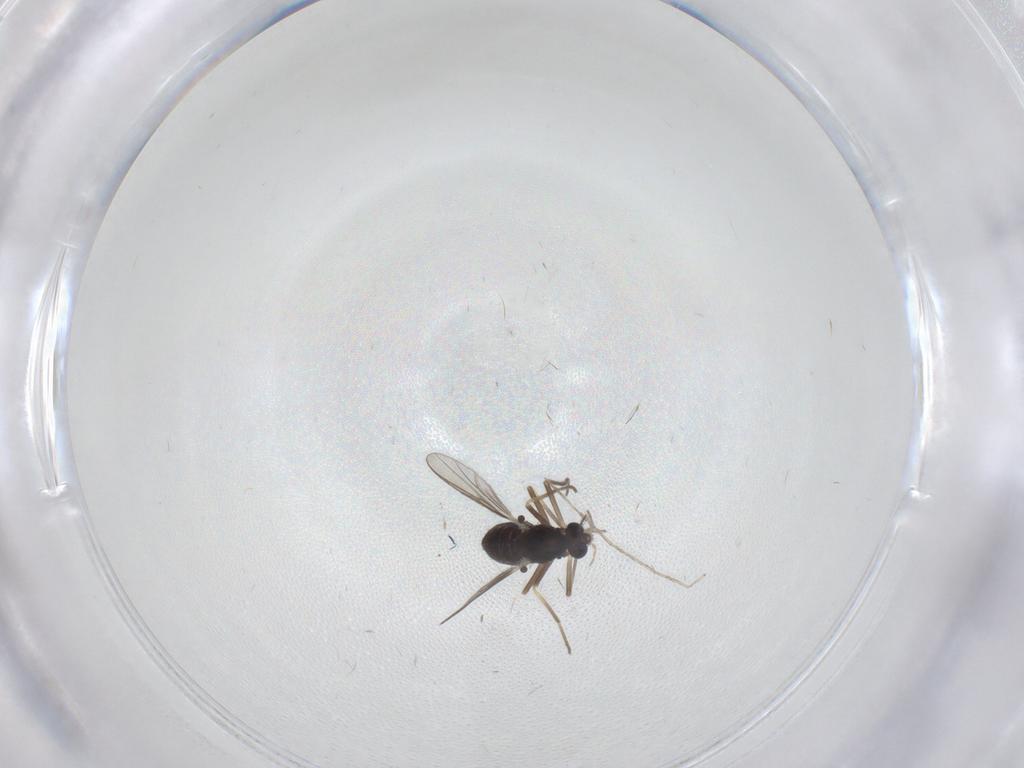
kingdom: Animalia
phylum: Arthropoda
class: Insecta
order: Diptera
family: Chironomidae
